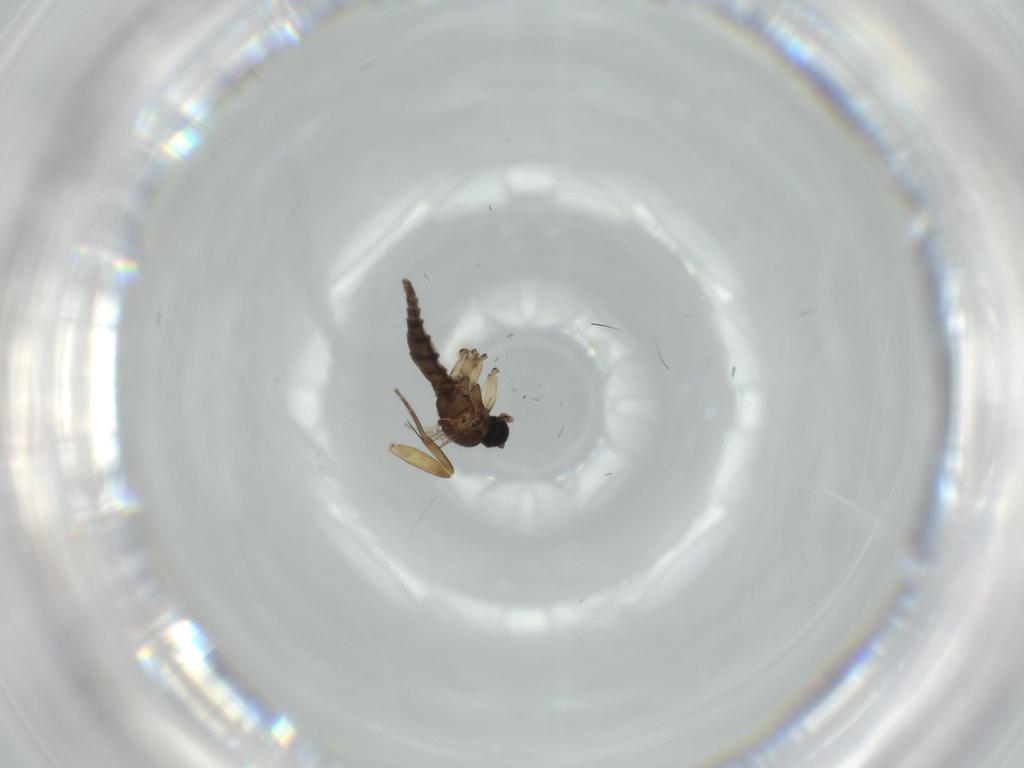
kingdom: Animalia
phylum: Arthropoda
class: Insecta
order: Diptera
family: Sciaridae
